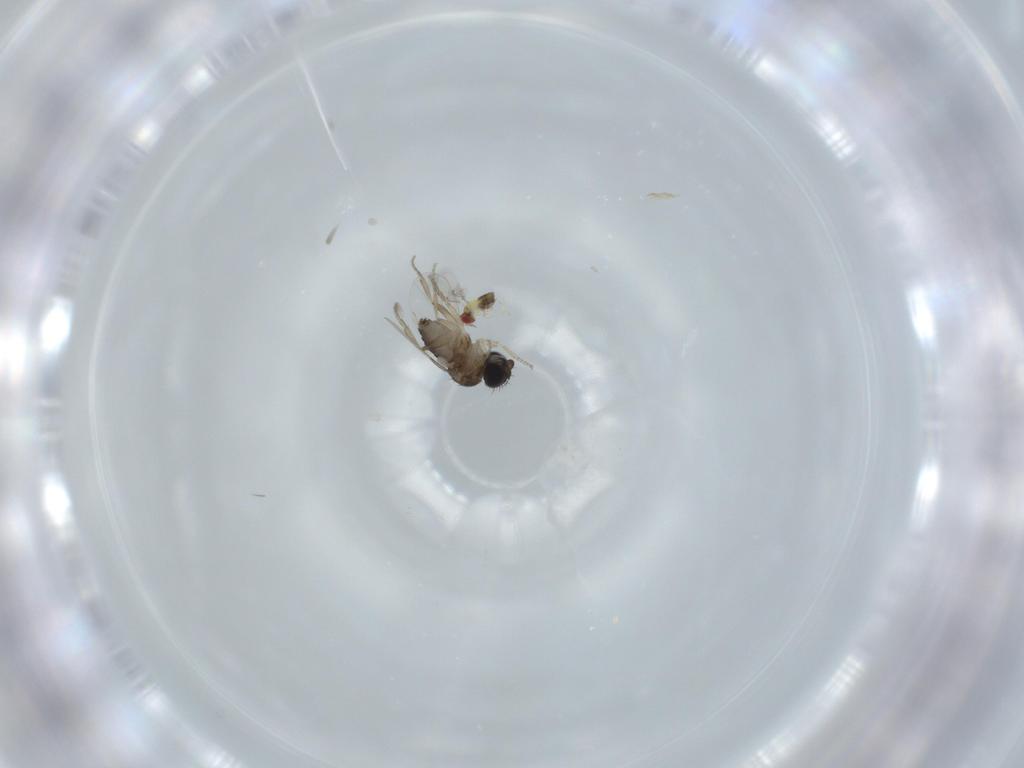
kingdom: Animalia
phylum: Arthropoda
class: Insecta
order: Diptera
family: Phoridae
